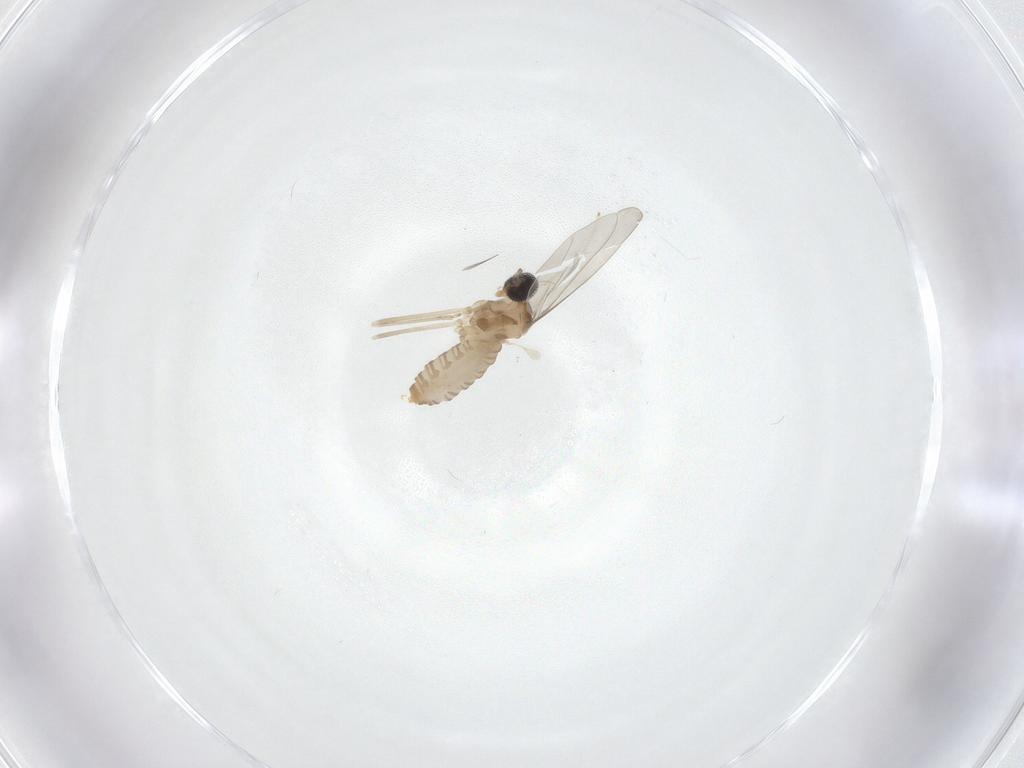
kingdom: Animalia
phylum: Arthropoda
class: Insecta
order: Diptera
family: Cecidomyiidae
